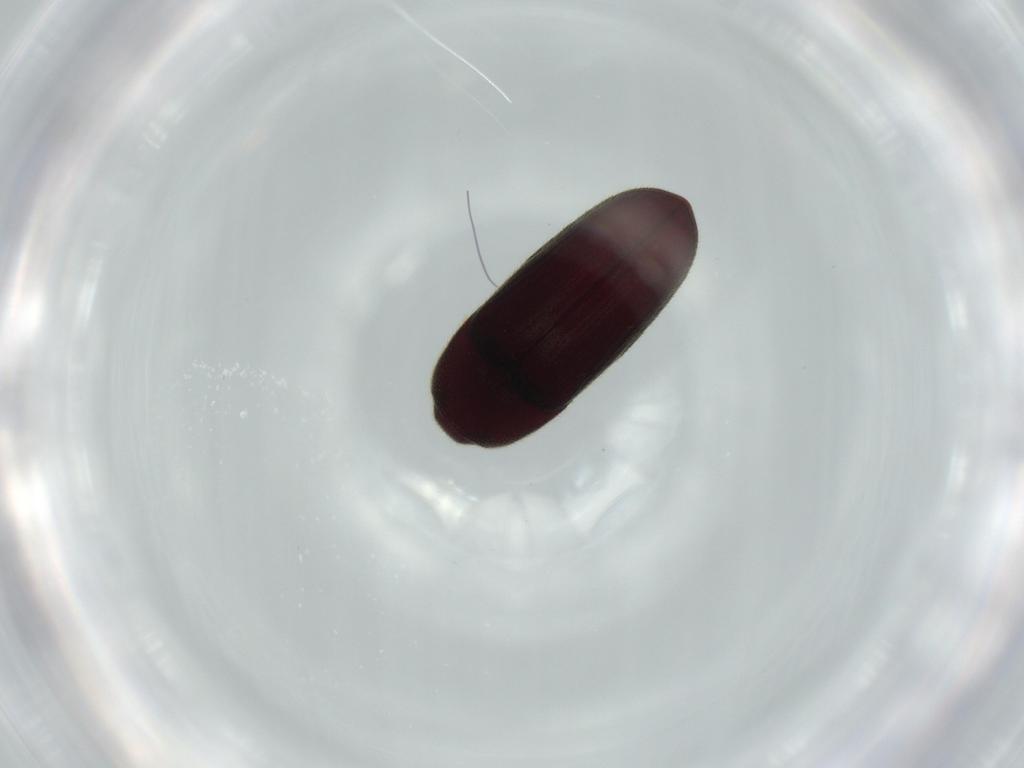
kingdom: Animalia
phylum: Arthropoda
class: Insecta
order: Coleoptera
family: Throscidae
